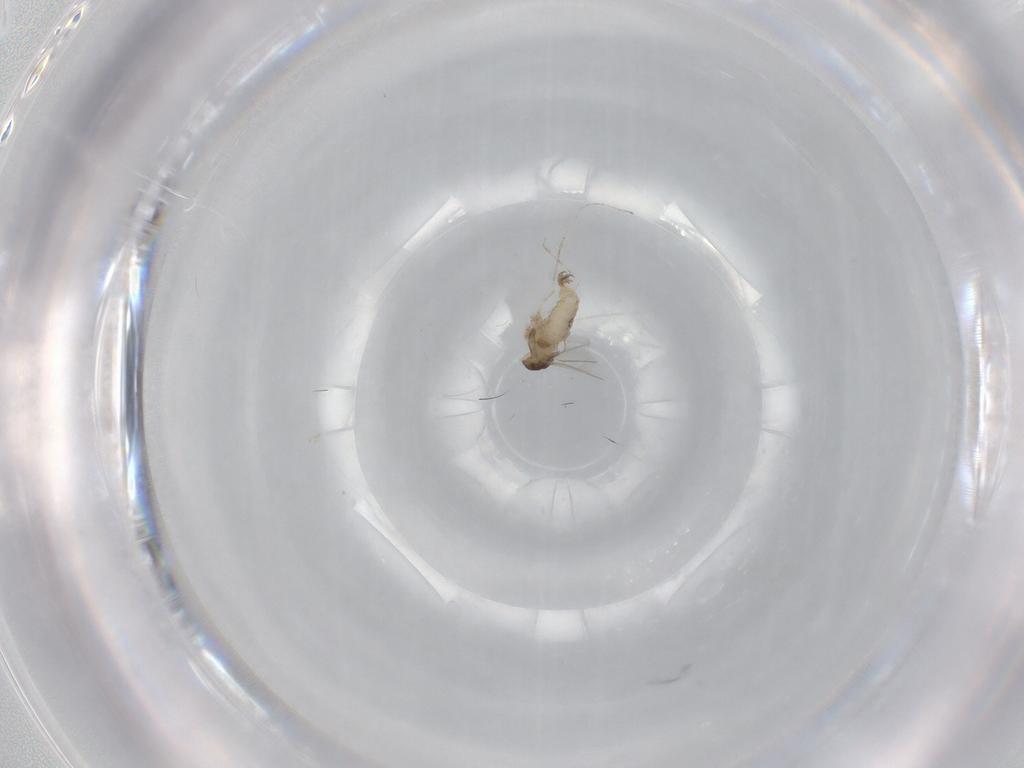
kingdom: Animalia
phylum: Arthropoda
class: Insecta
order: Diptera
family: Cecidomyiidae
